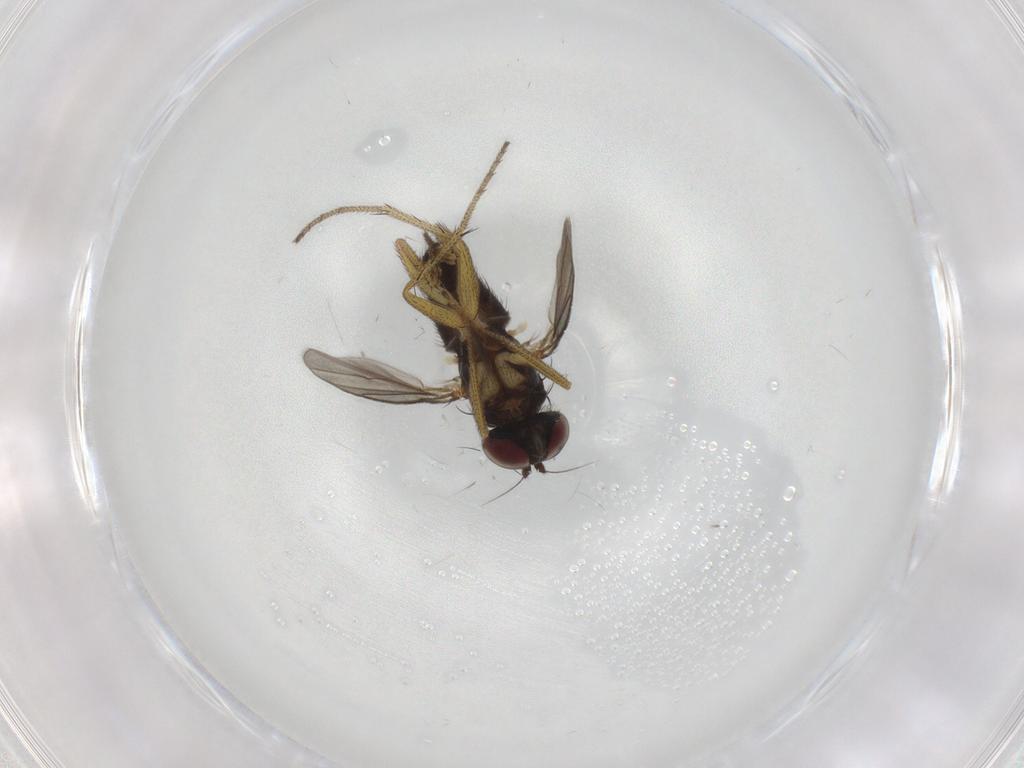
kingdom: Animalia
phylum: Arthropoda
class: Insecta
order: Diptera
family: Dolichopodidae
